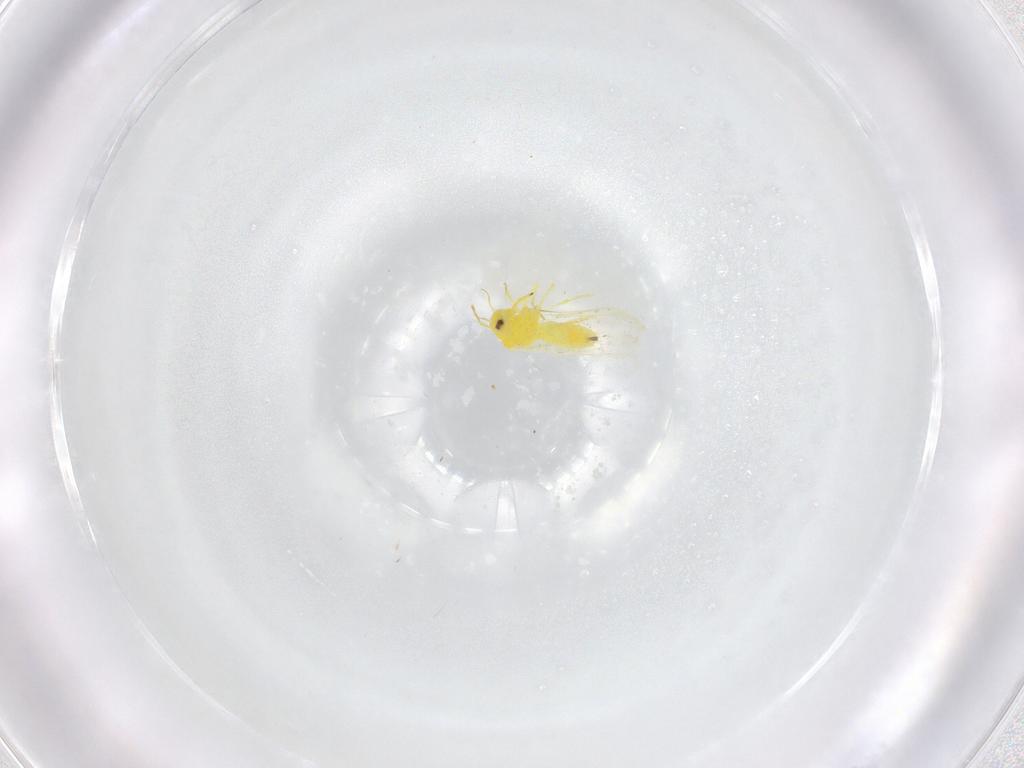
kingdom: Animalia
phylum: Arthropoda
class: Insecta
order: Hemiptera
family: Aleyrodidae
